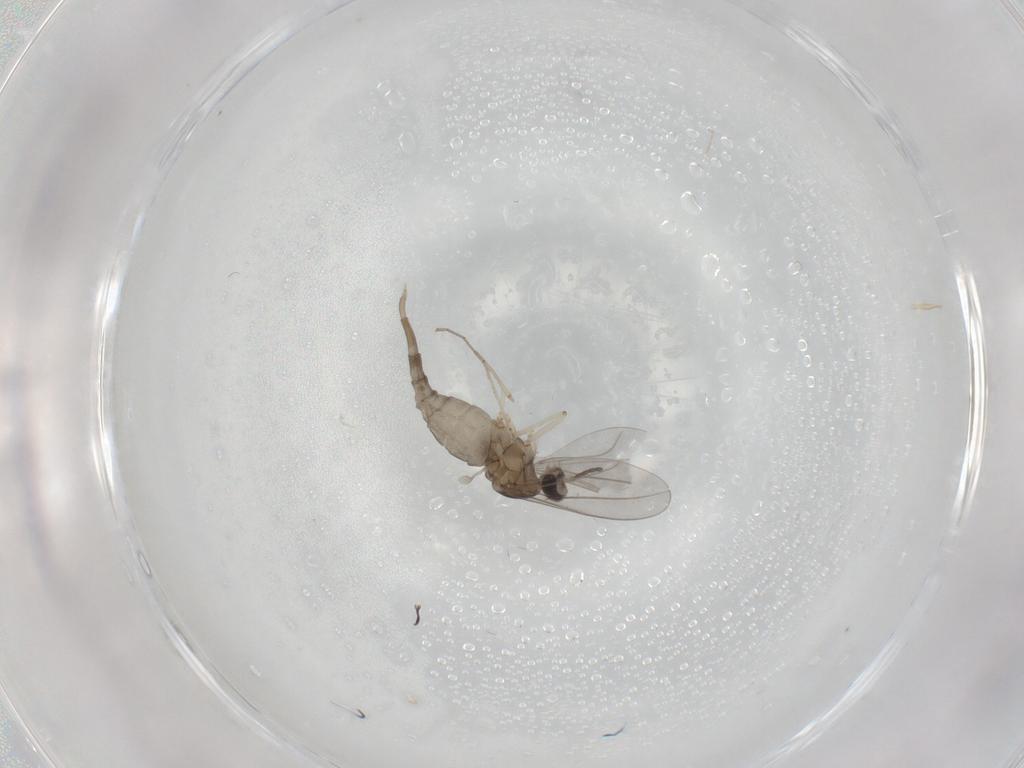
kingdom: Animalia
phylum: Arthropoda
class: Insecta
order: Diptera
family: Cecidomyiidae
